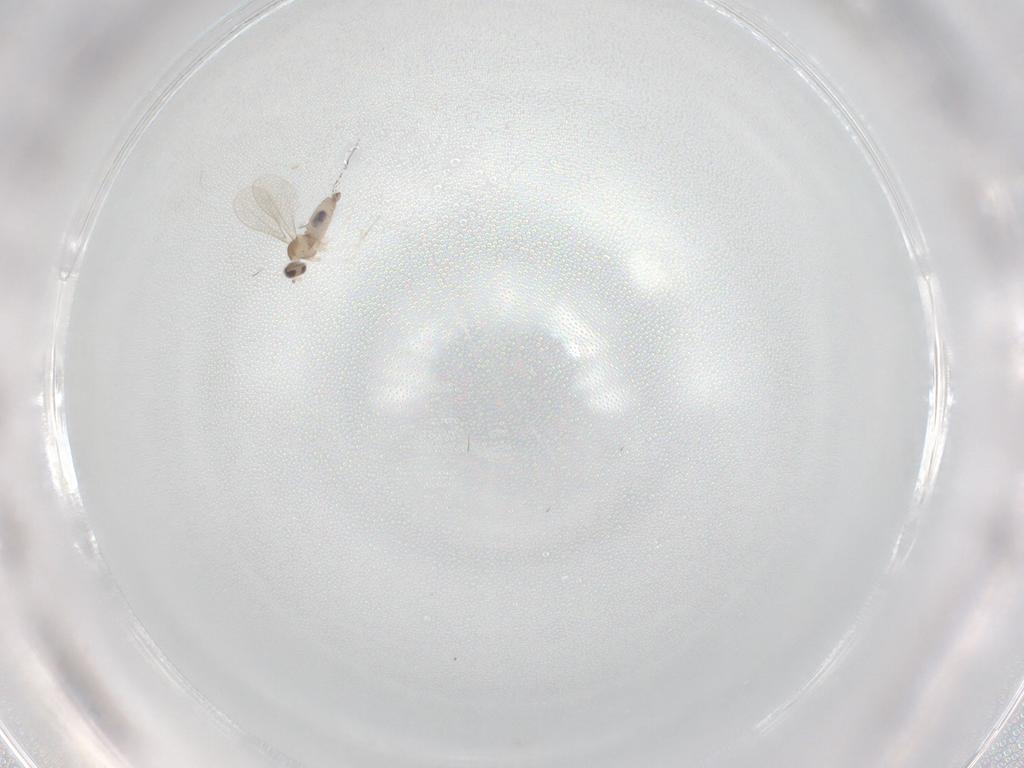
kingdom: Animalia
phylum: Arthropoda
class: Insecta
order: Diptera
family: Cecidomyiidae
